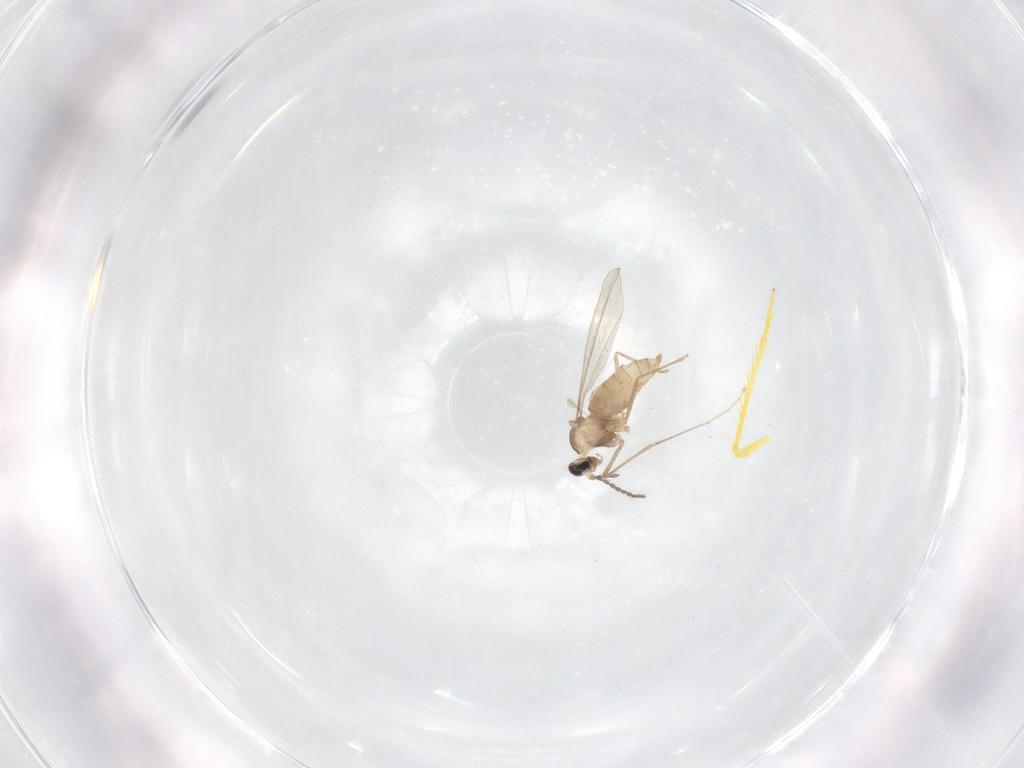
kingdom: Animalia
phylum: Arthropoda
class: Insecta
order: Diptera
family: Cecidomyiidae
